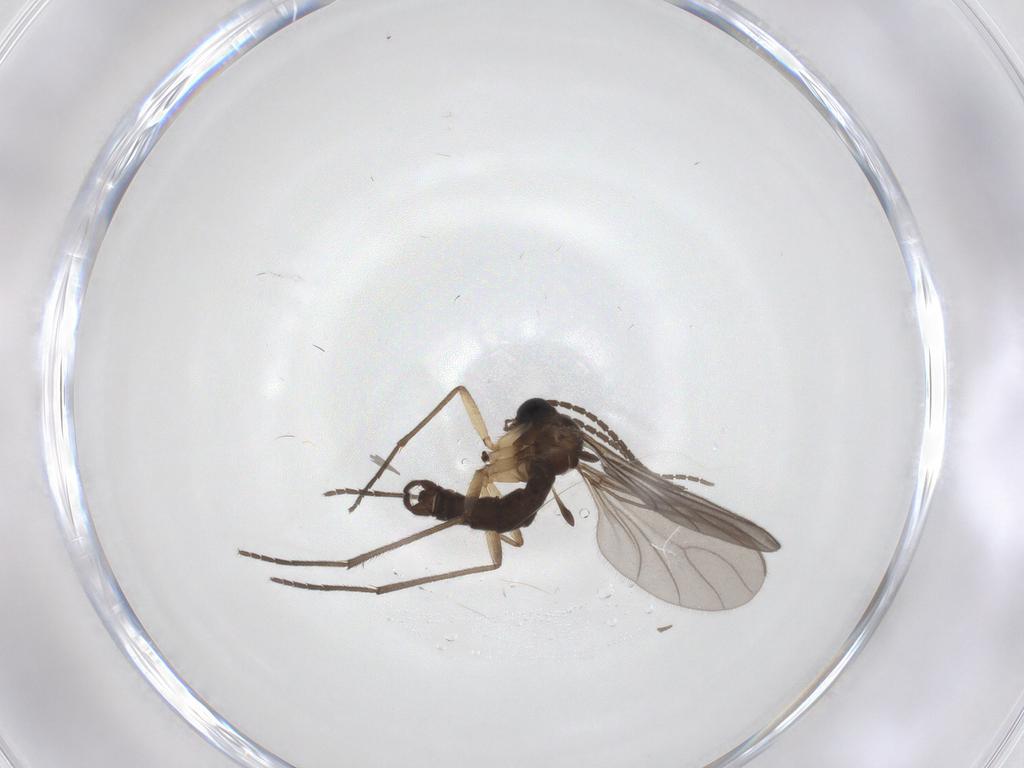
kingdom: Animalia
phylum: Arthropoda
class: Insecta
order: Diptera
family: Sciaridae
